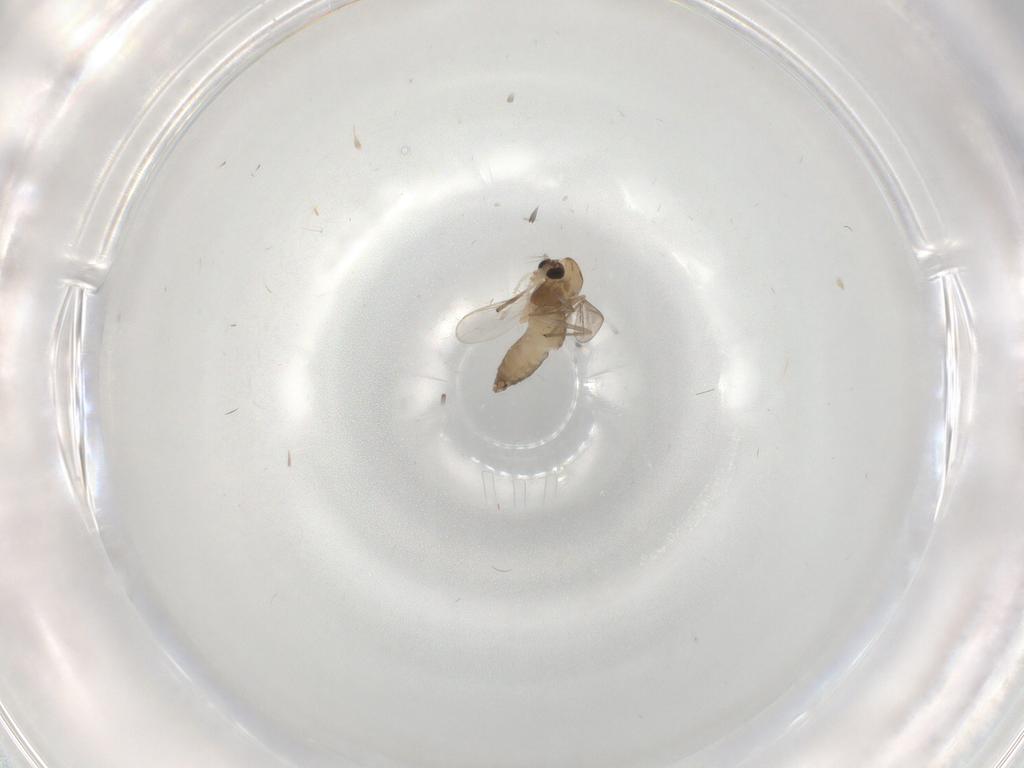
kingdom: Animalia
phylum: Arthropoda
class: Insecta
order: Diptera
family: Chironomidae
